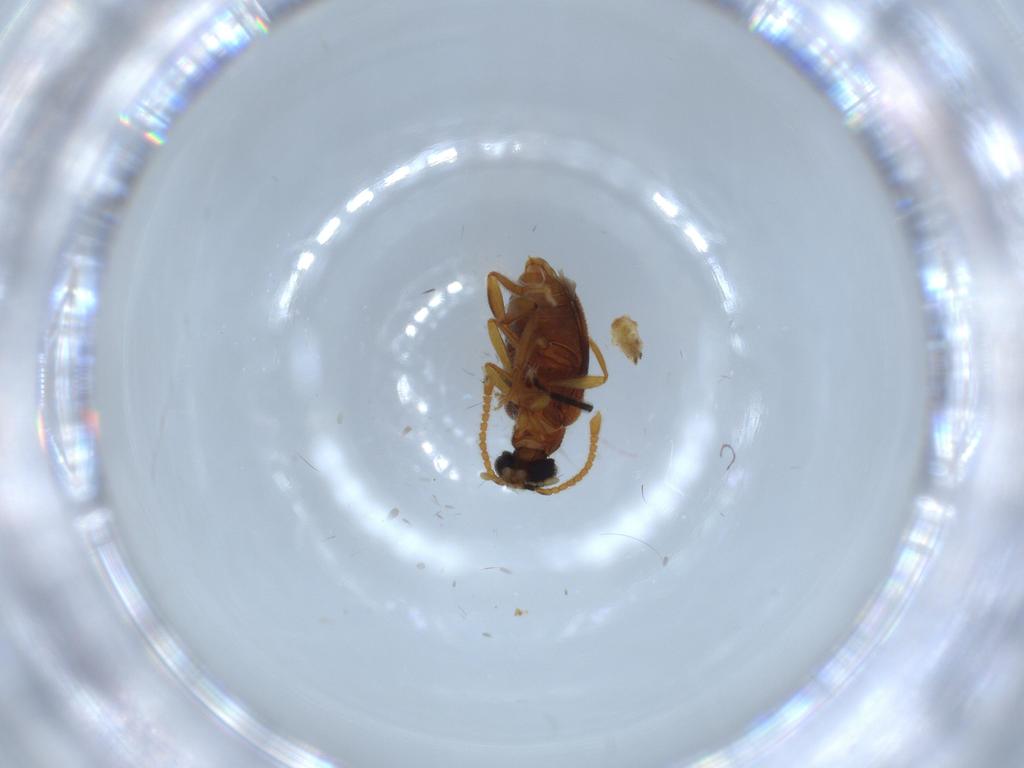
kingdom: Animalia
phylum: Arthropoda
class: Insecta
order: Coleoptera
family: Aderidae
